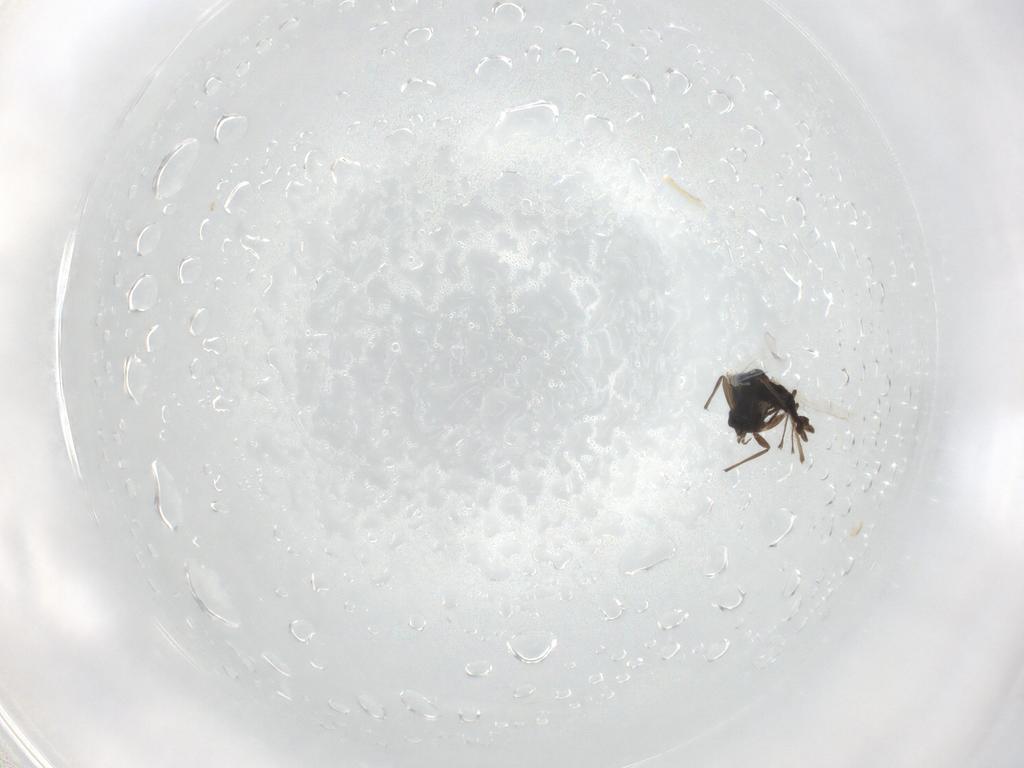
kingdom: Animalia
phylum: Arthropoda
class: Insecta
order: Diptera
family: Chironomidae
